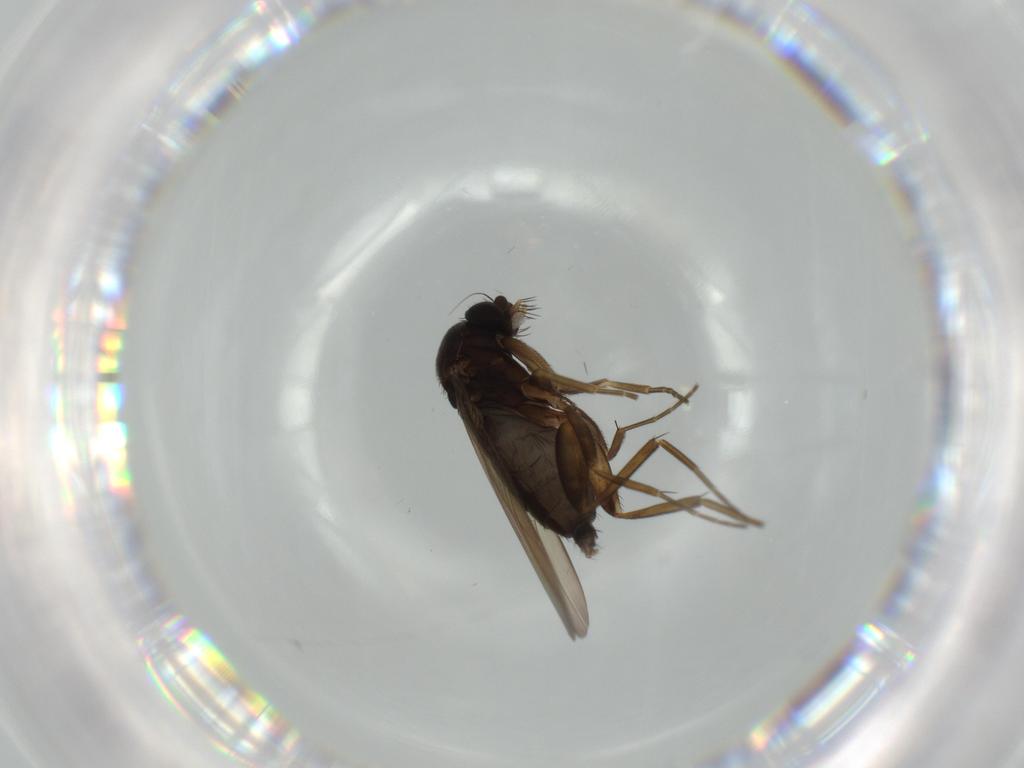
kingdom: Animalia
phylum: Arthropoda
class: Insecta
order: Diptera
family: Phoridae
